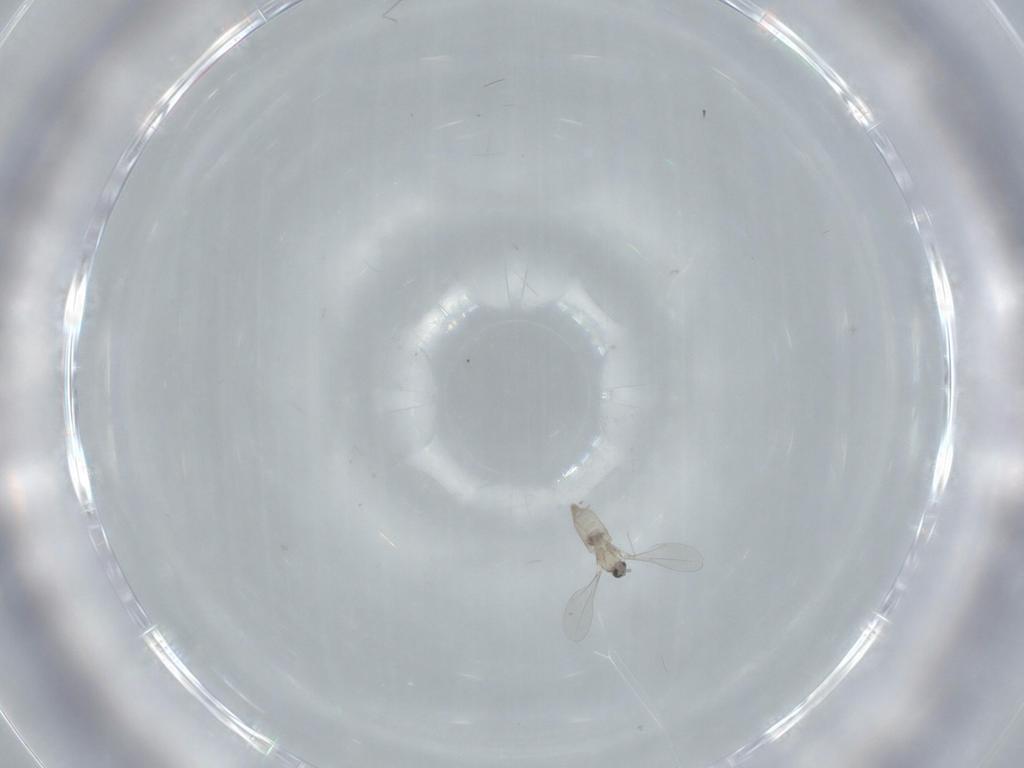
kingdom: Animalia
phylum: Arthropoda
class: Insecta
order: Diptera
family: Cecidomyiidae
